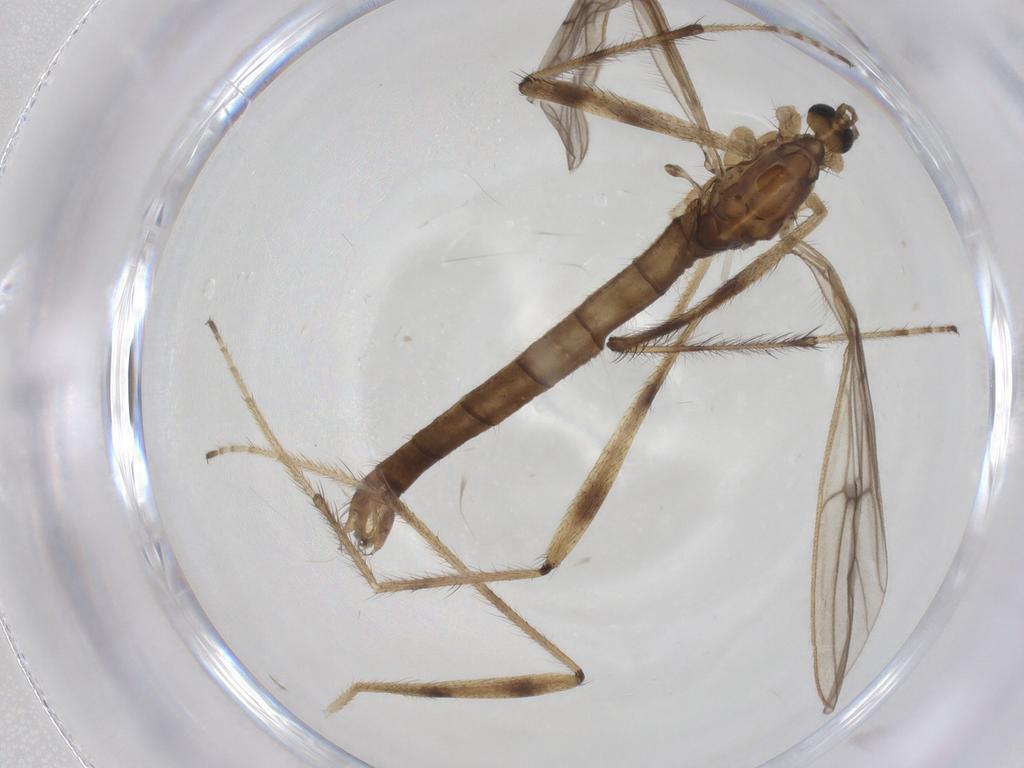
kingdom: Animalia
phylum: Arthropoda
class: Insecta
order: Diptera
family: Limoniidae
